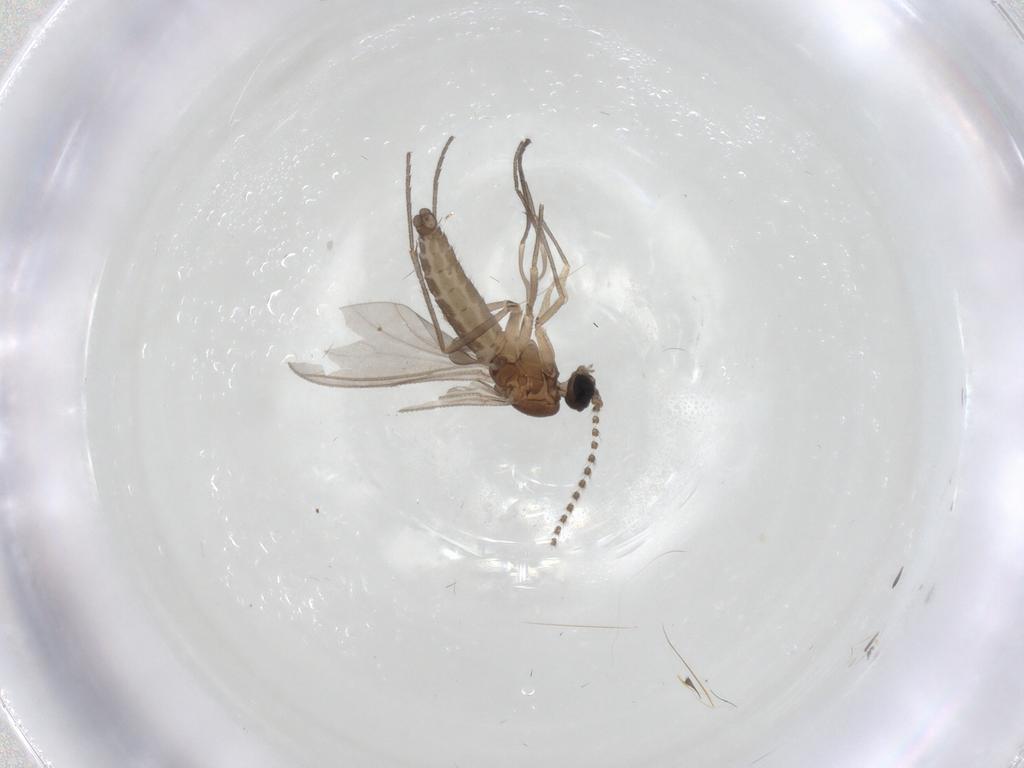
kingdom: Animalia
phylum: Arthropoda
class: Insecta
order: Diptera
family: Sciaridae
